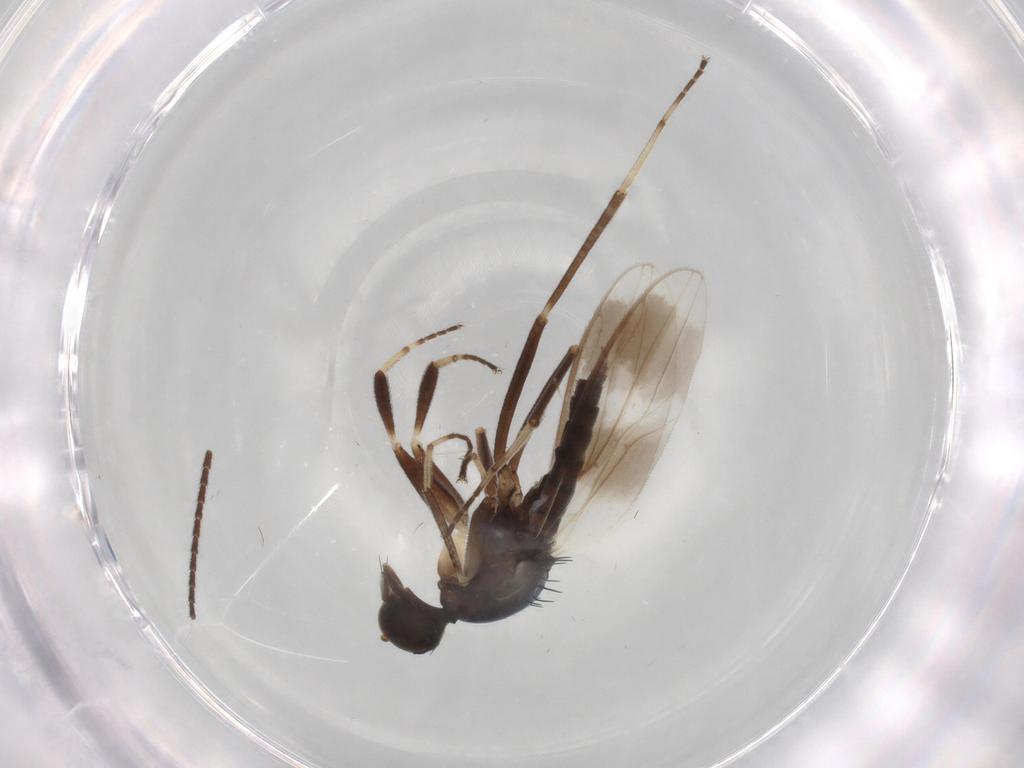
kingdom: Animalia
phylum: Arthropoda
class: Insecta
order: Diptera
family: Hybotidae
